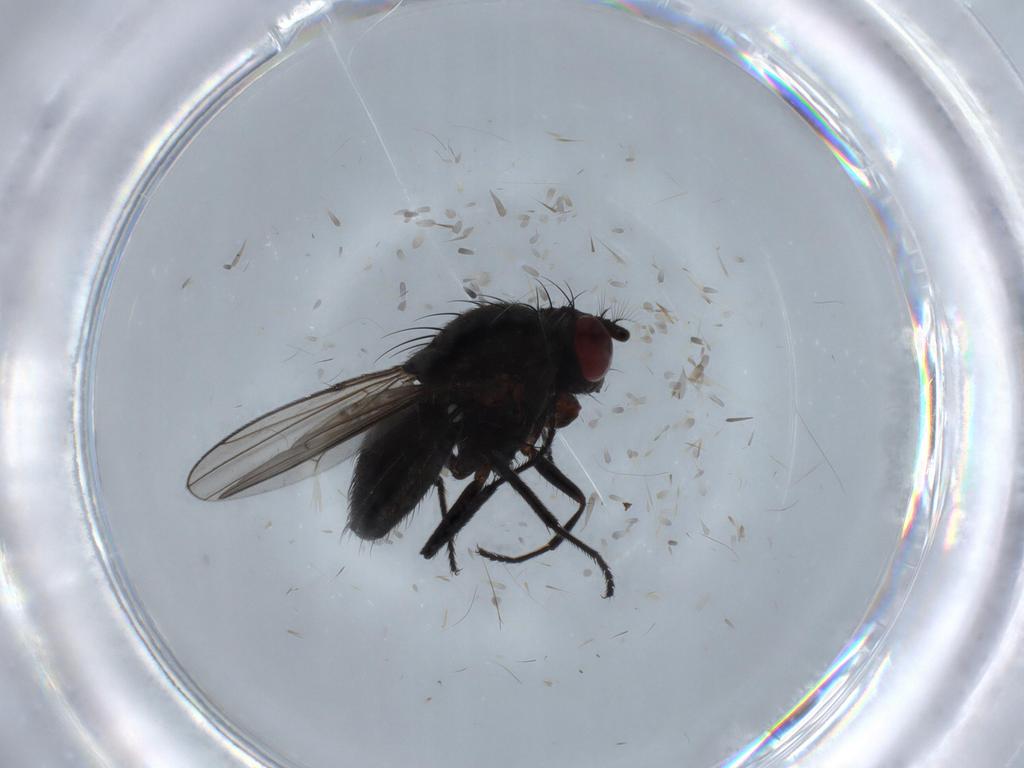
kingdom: Animalia
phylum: Arthropoda
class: Insecta
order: Diptera
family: Ephydridae
